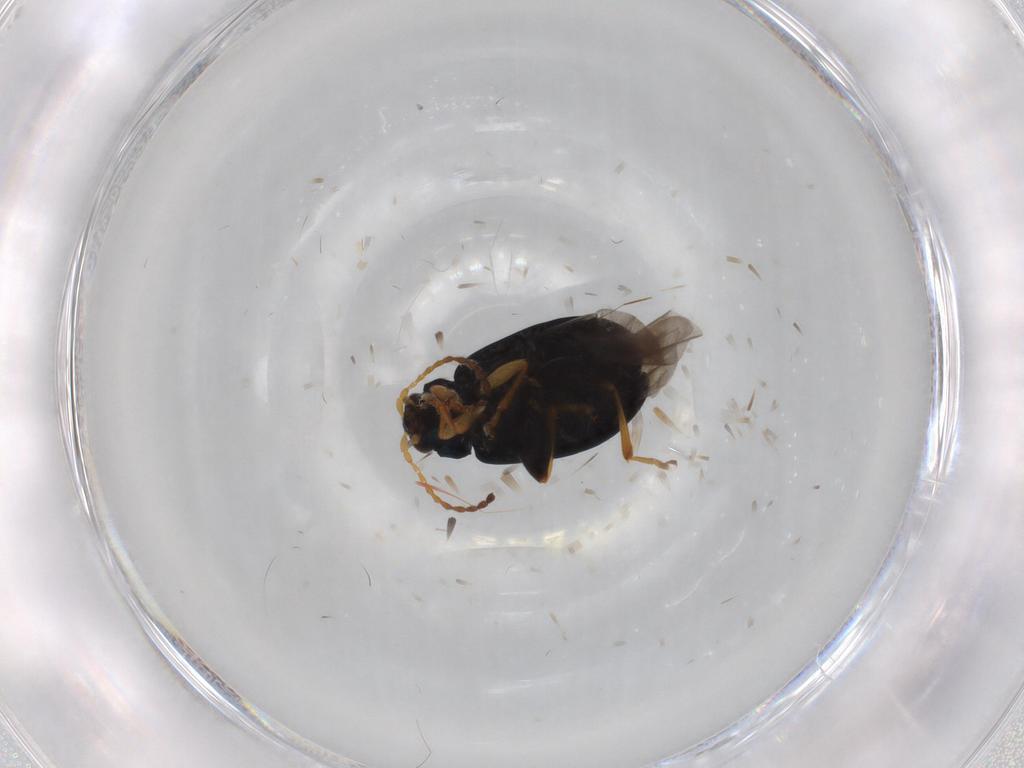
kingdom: Animalia
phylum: Arthropoda
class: Insecta
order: Coleoptera
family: Chrysomelidae
